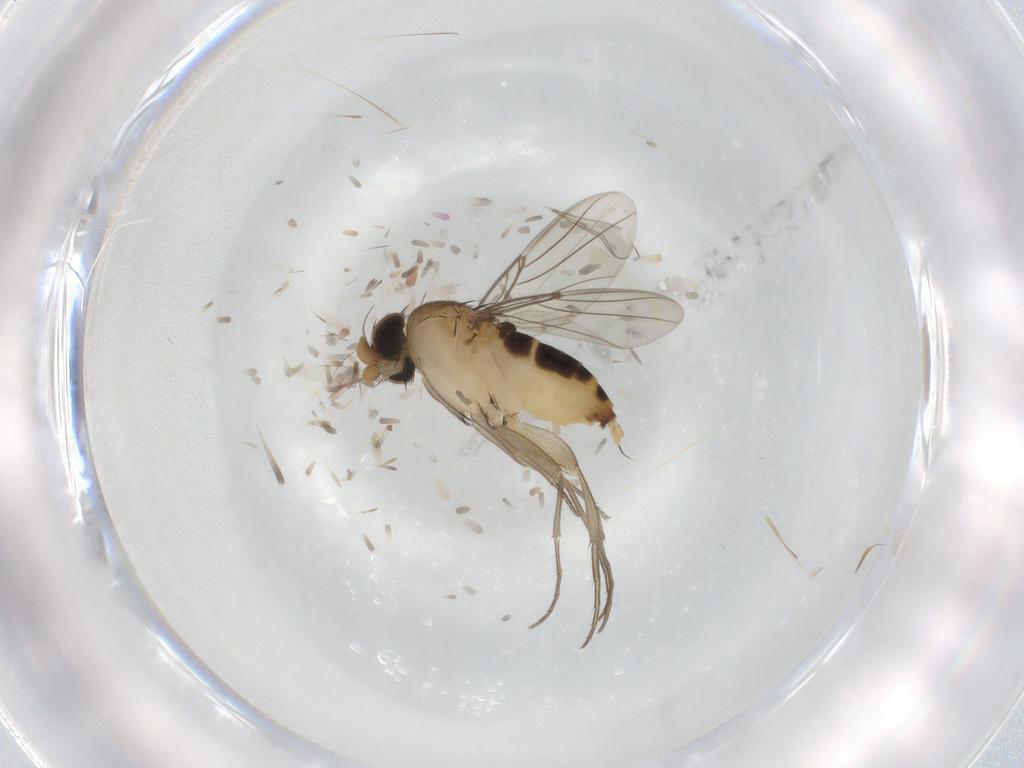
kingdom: Animalia
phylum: Arthropoda
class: Insecta
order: Diptera
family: Phoridae
